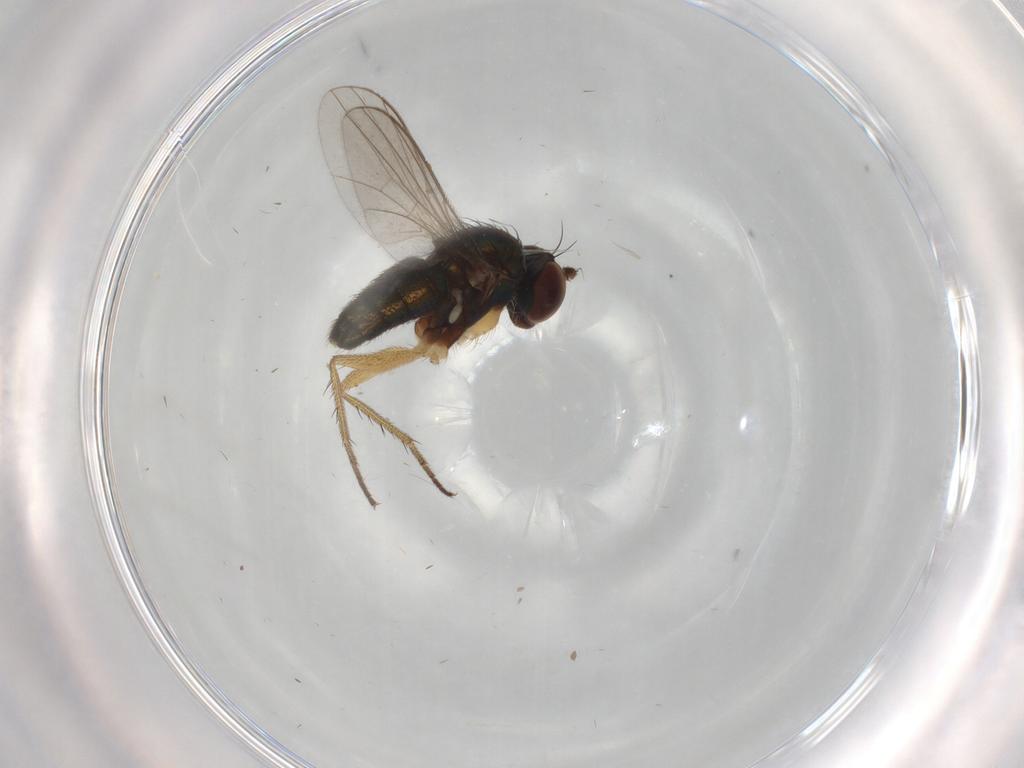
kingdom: Animalia
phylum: Arthropoda
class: Insecta
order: Diptera
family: Dolichopodidae
